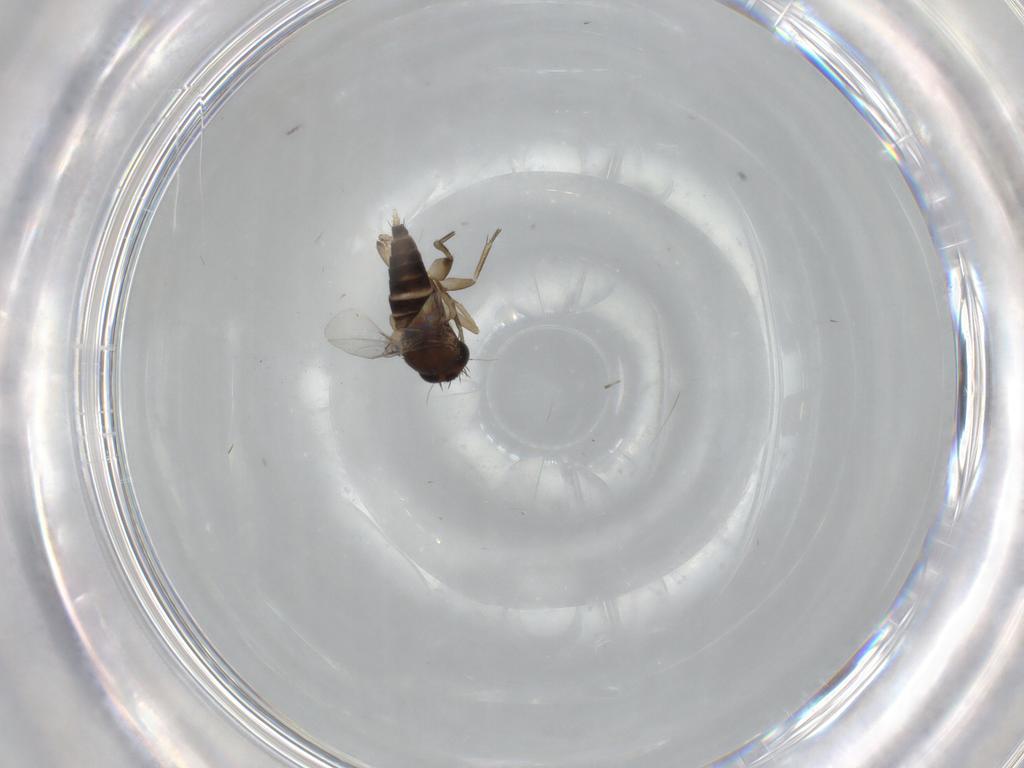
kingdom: Animalia
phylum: Arthropoda
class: Insecta
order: Diptera
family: Phoridae
